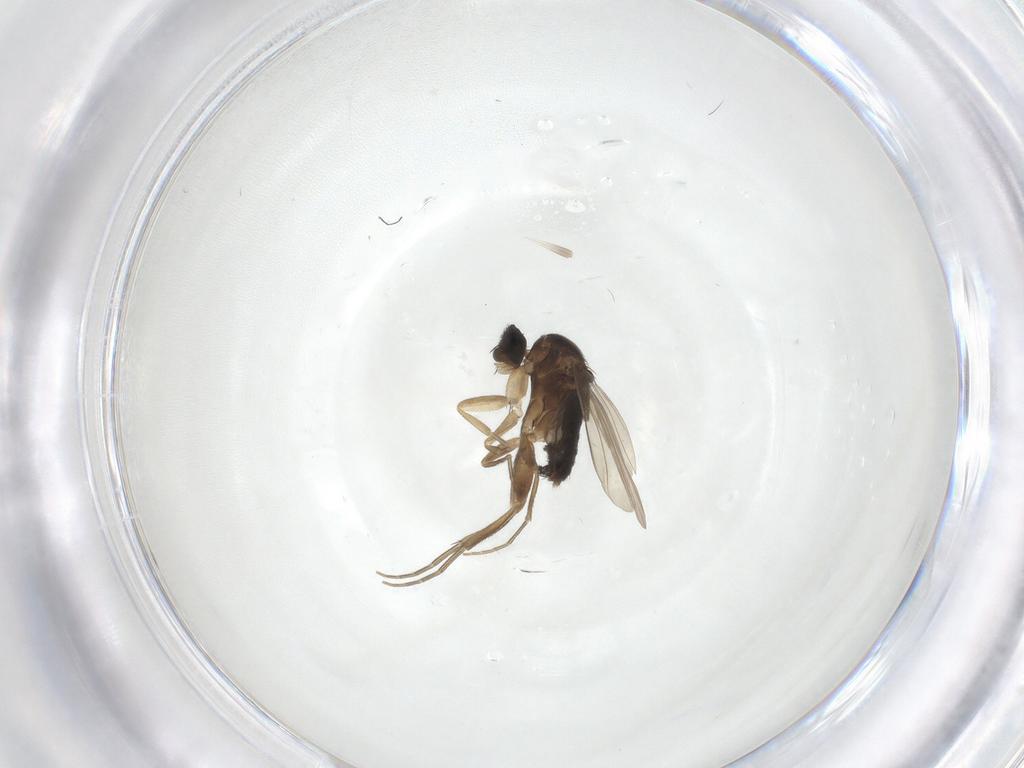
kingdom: Animalia
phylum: Arthropoda
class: Insecta
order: Diptera
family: Phoridae
